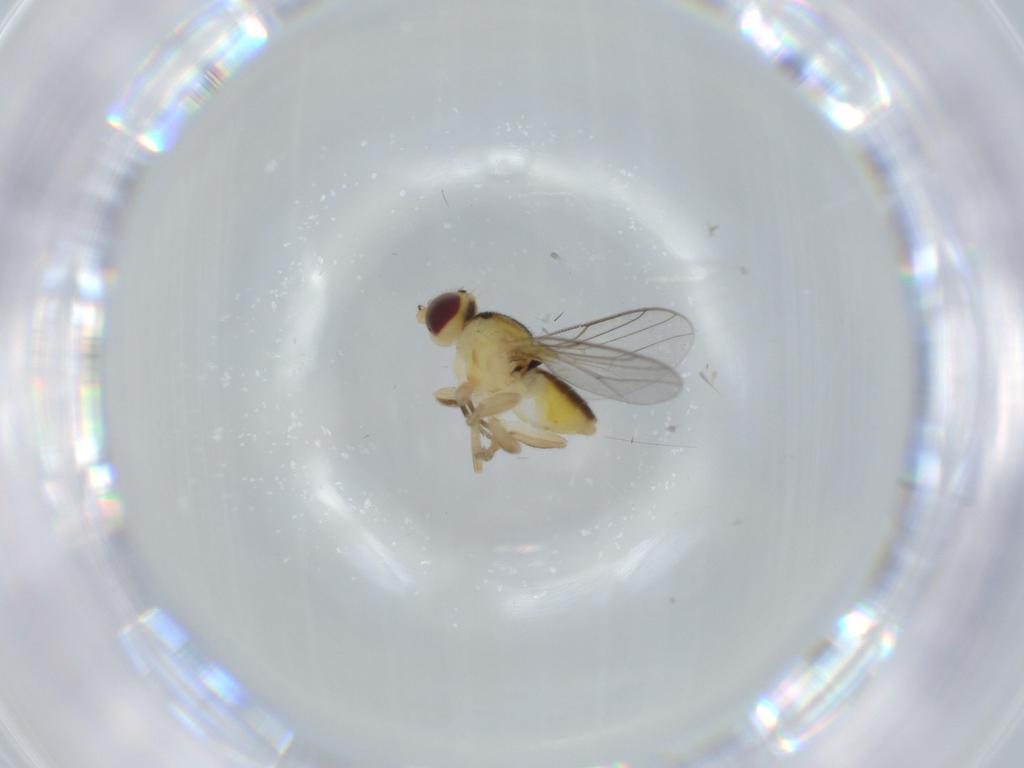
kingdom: Animalia
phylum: Arthropoda
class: Insecta
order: Diptera
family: Chloropidae
